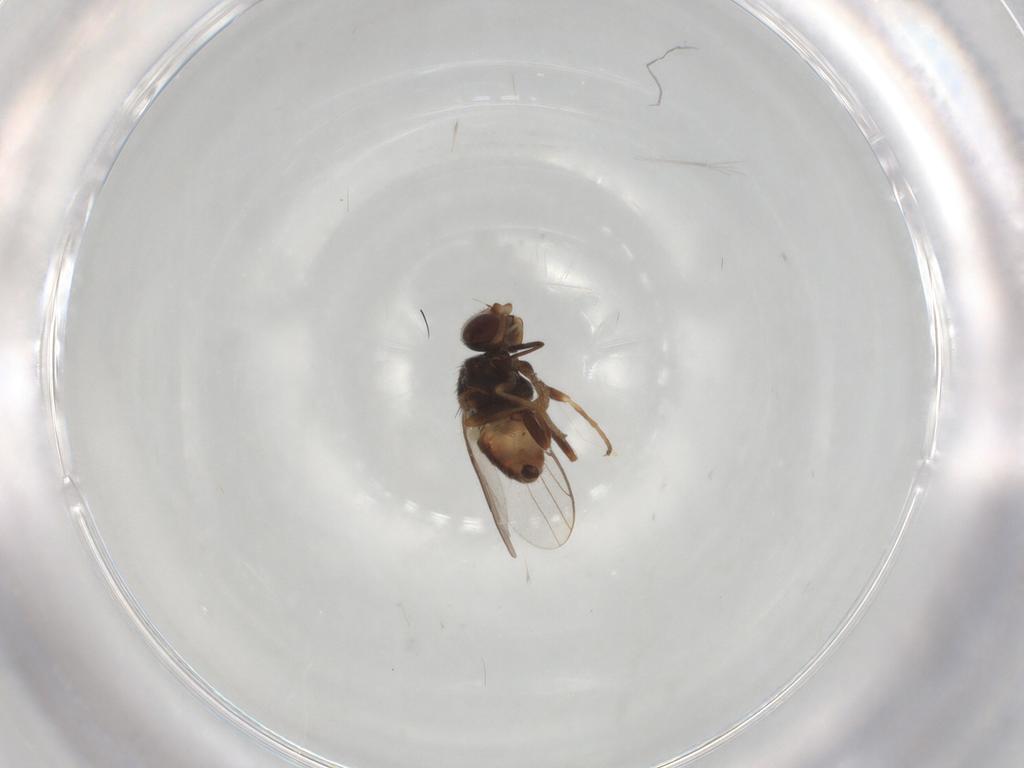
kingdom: Animalia
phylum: Arthropoda
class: Insecta
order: Diptera
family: Chloropidae
